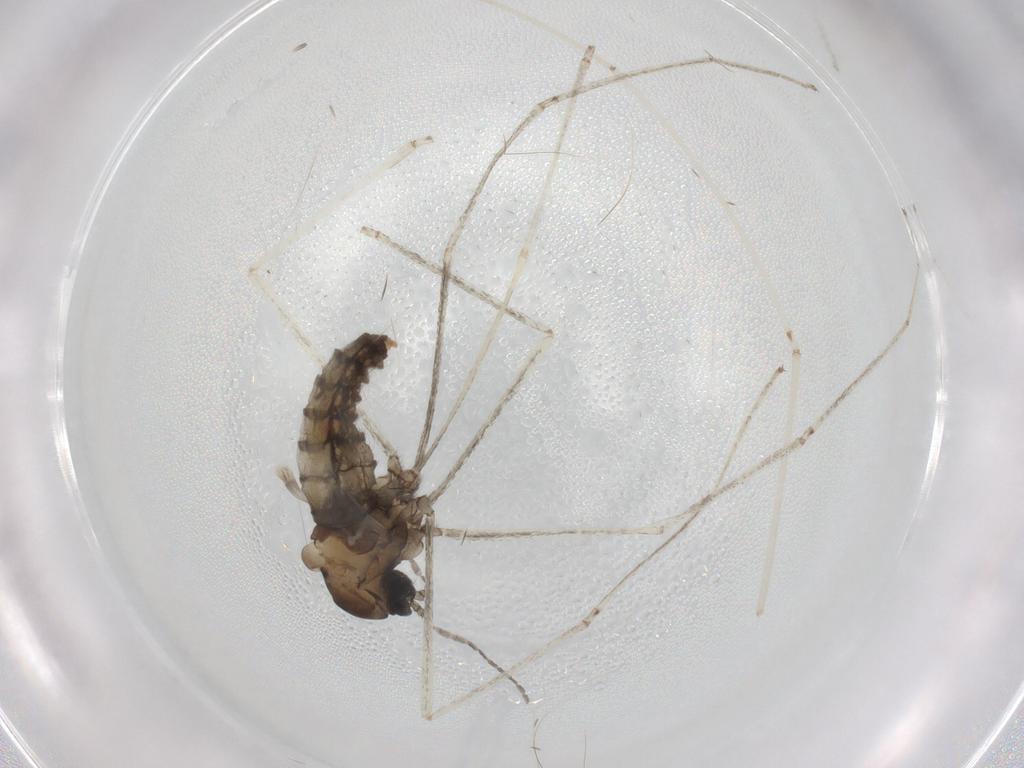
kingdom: Animalia
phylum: Arthropoda
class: Insecta
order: Diptera
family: Cecidomyiidae
